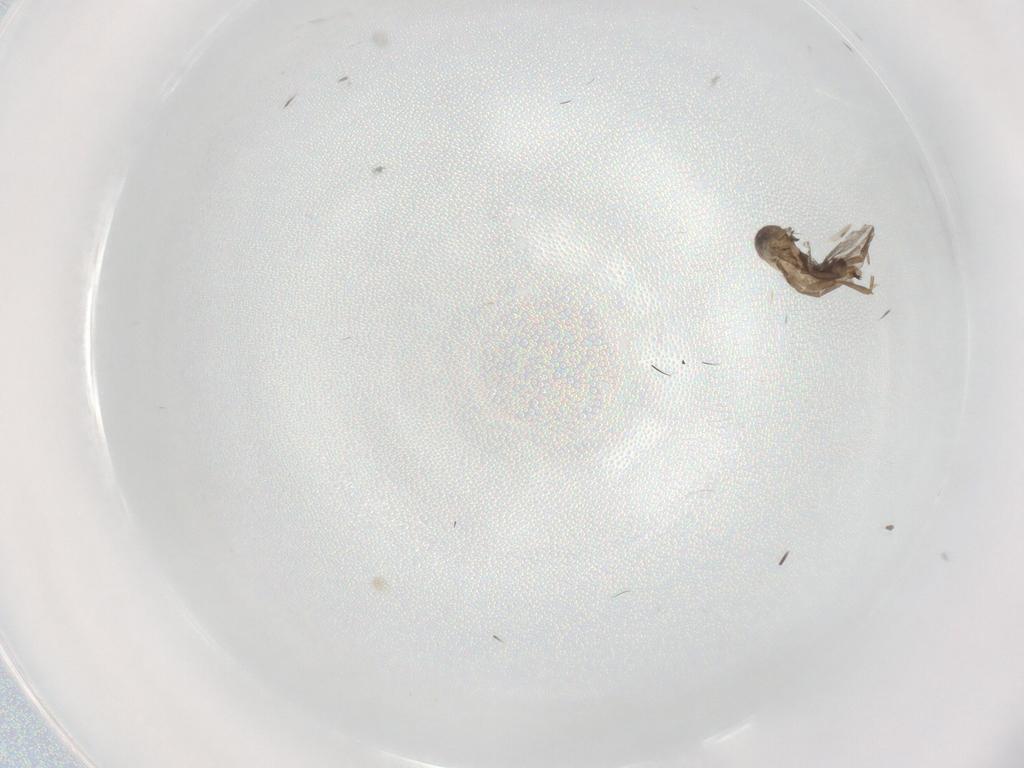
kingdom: Animalia
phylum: Arthropoda
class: Insecta
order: Diptera
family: Cecidomyiidae
